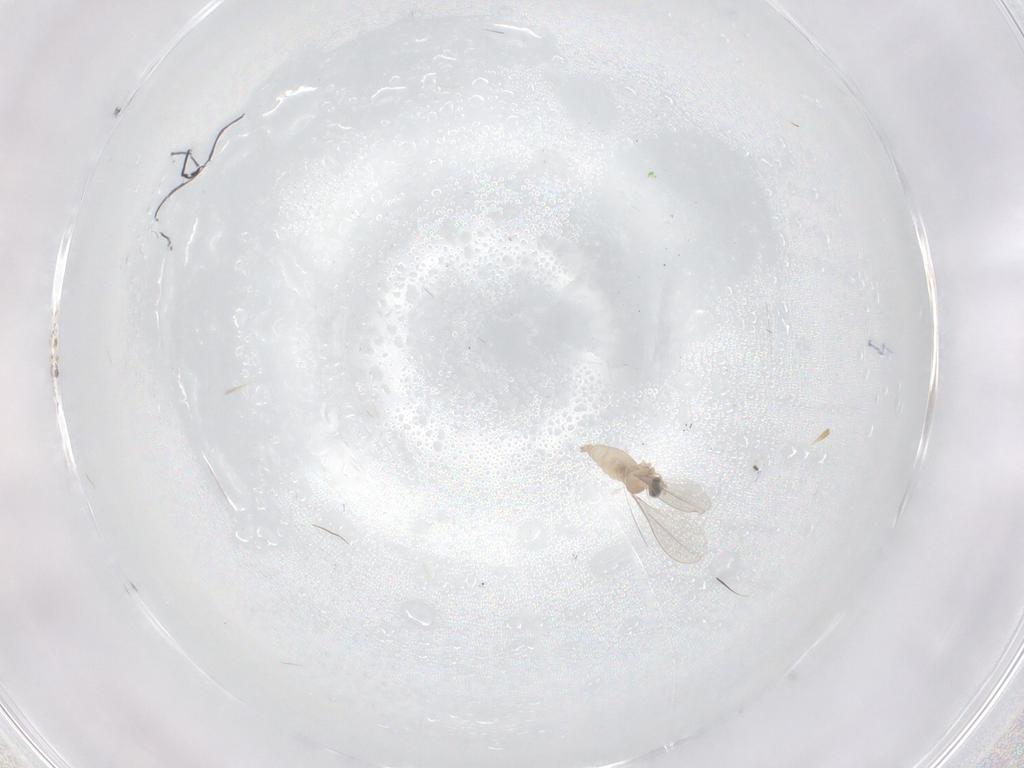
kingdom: Animalia
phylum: Arthropoda
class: Insecta
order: Diptera
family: Cecidomyiidae
